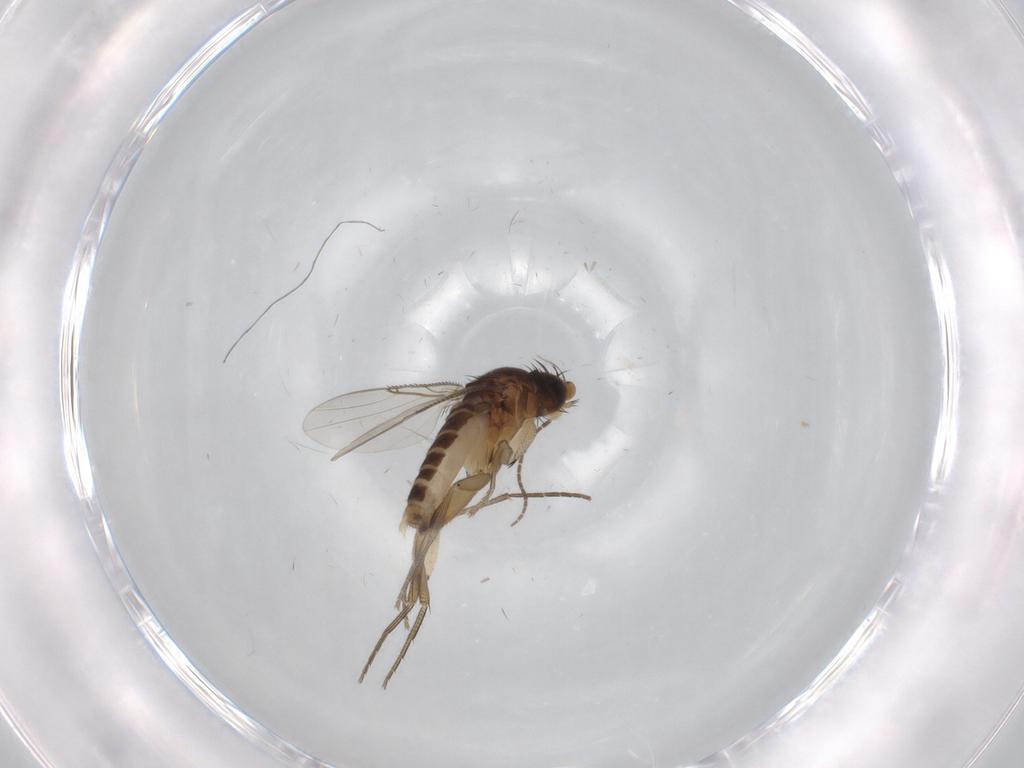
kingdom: Animalia
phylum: Arthropoda
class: Insecta
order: Diptera
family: Phoridae
